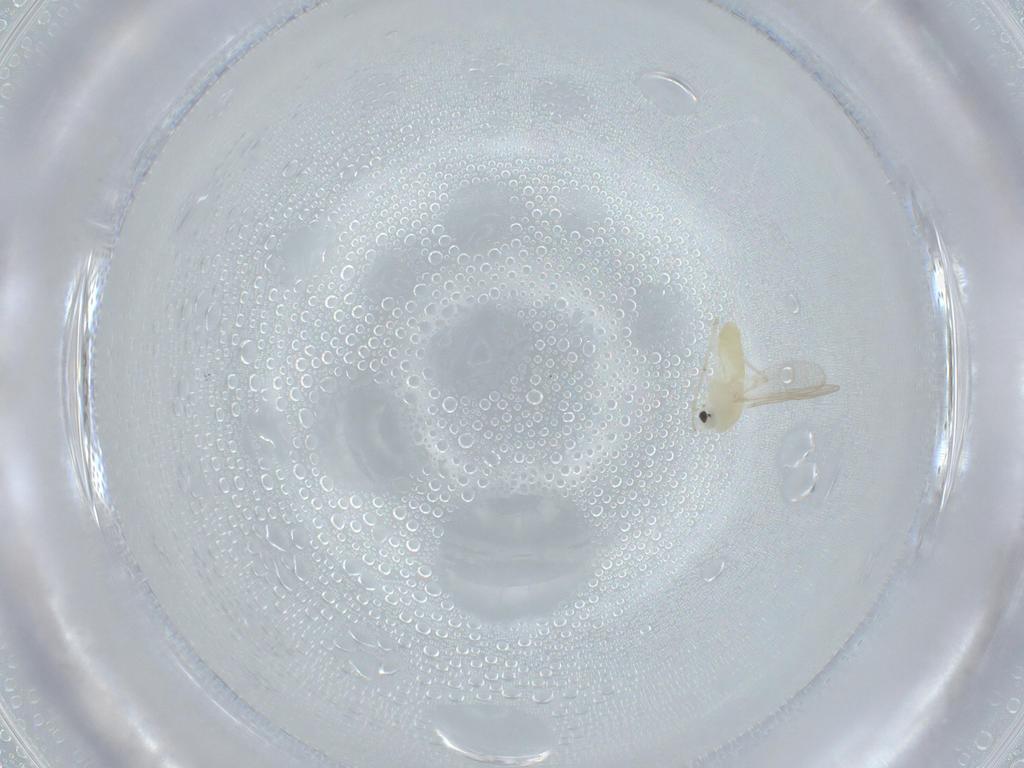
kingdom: Animalia
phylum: Arthropoda
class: Insecta
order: Diptera
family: Chironomidae
